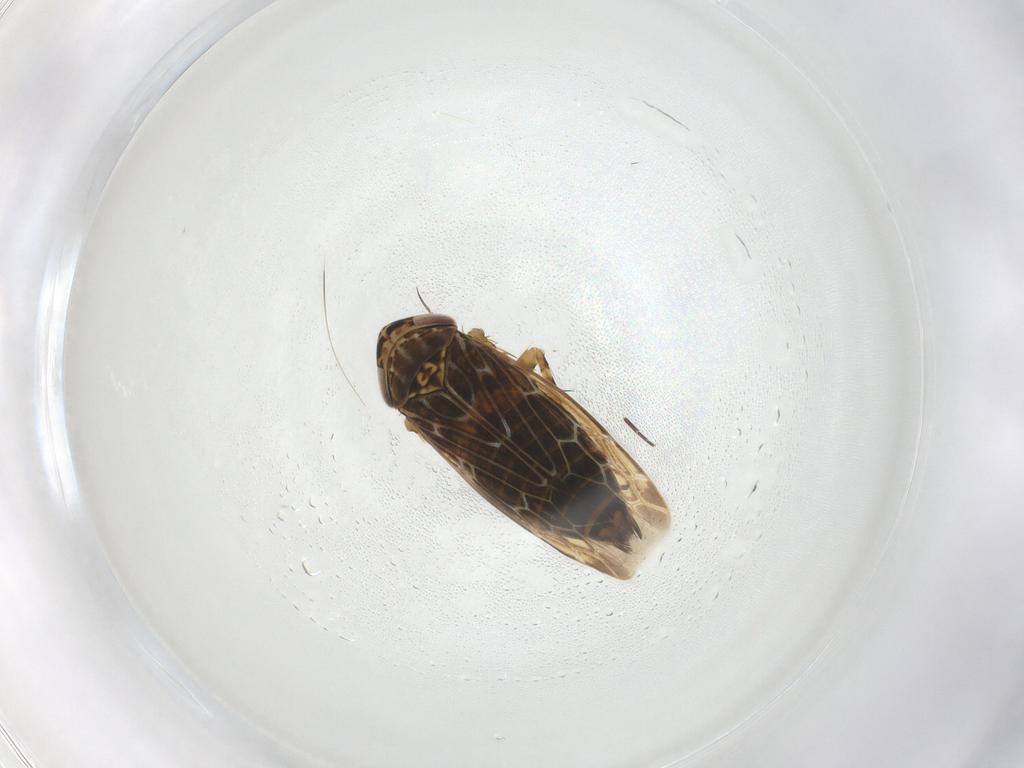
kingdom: Animalia
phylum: Arthropoda
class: Insecta
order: Hemiptera
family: Cicadellidae
